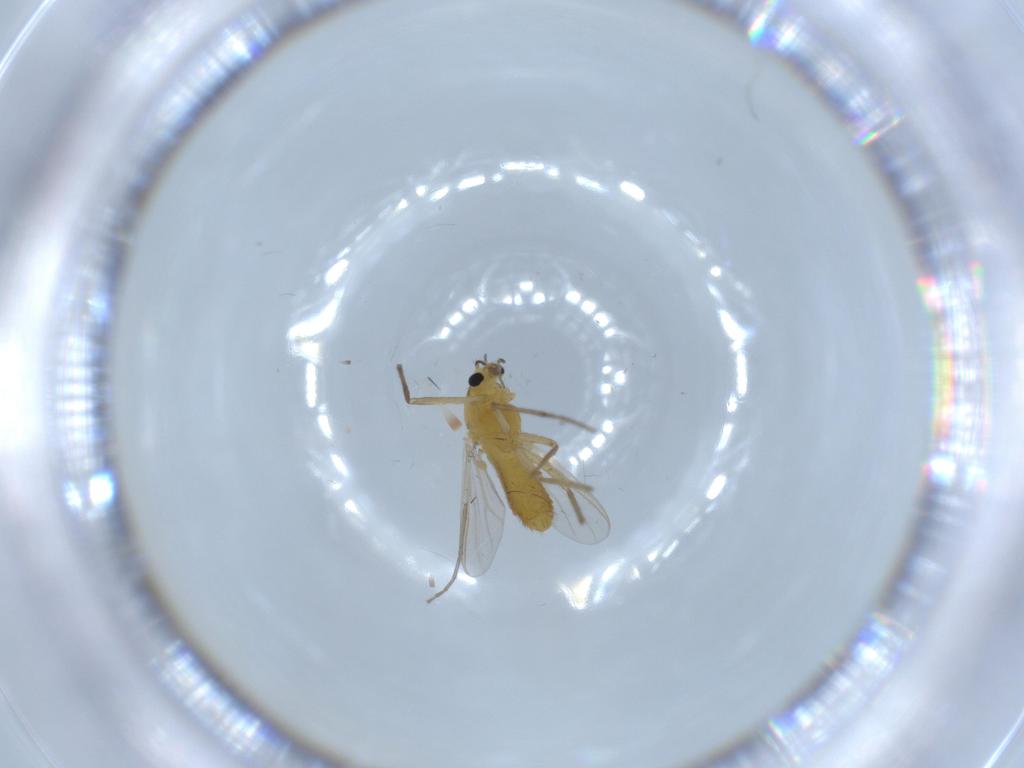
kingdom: Animalia
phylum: Arthropoda
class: Insecta
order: Diptera
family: Chironomidae
